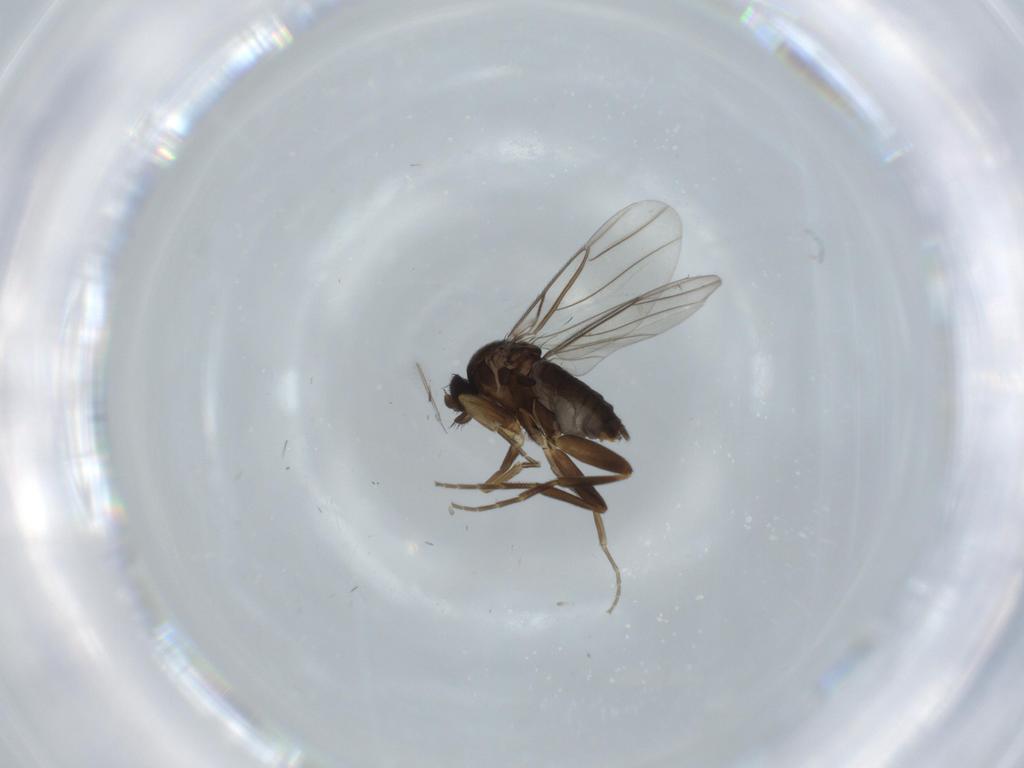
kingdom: Animalia
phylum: Arthropoda
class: Insecta
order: Diptera
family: Phoridae
